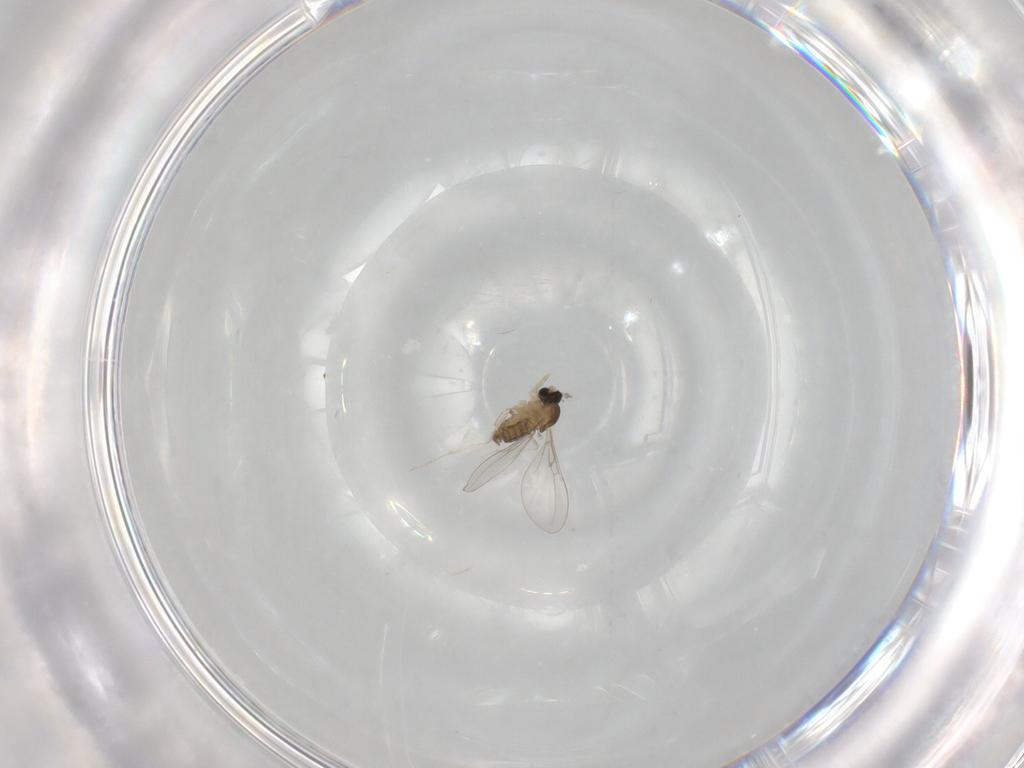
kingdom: Animalia
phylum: Arthropoda
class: Insecta
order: Diptera
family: Cecidomyiidae
